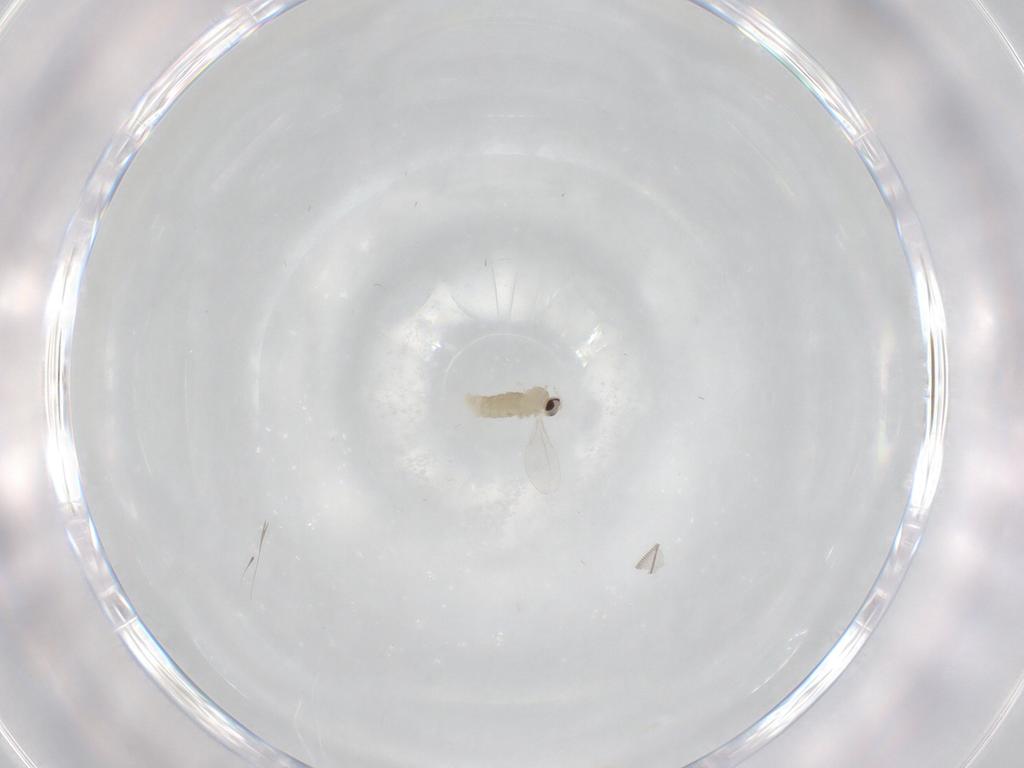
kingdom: Animalia
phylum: Arthropoda
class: Insecta
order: Diptera
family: Cecidomyiidae
